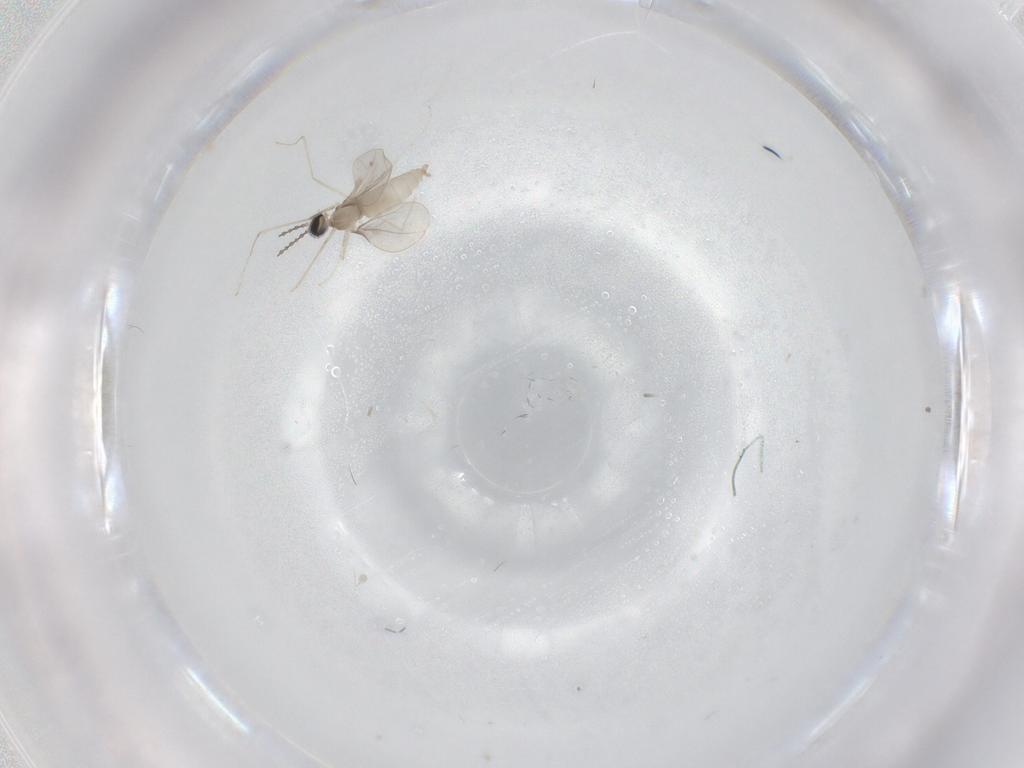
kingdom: Animalia
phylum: Arthropoda
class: Insecta
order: Diptera
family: Cecidomyiidae
